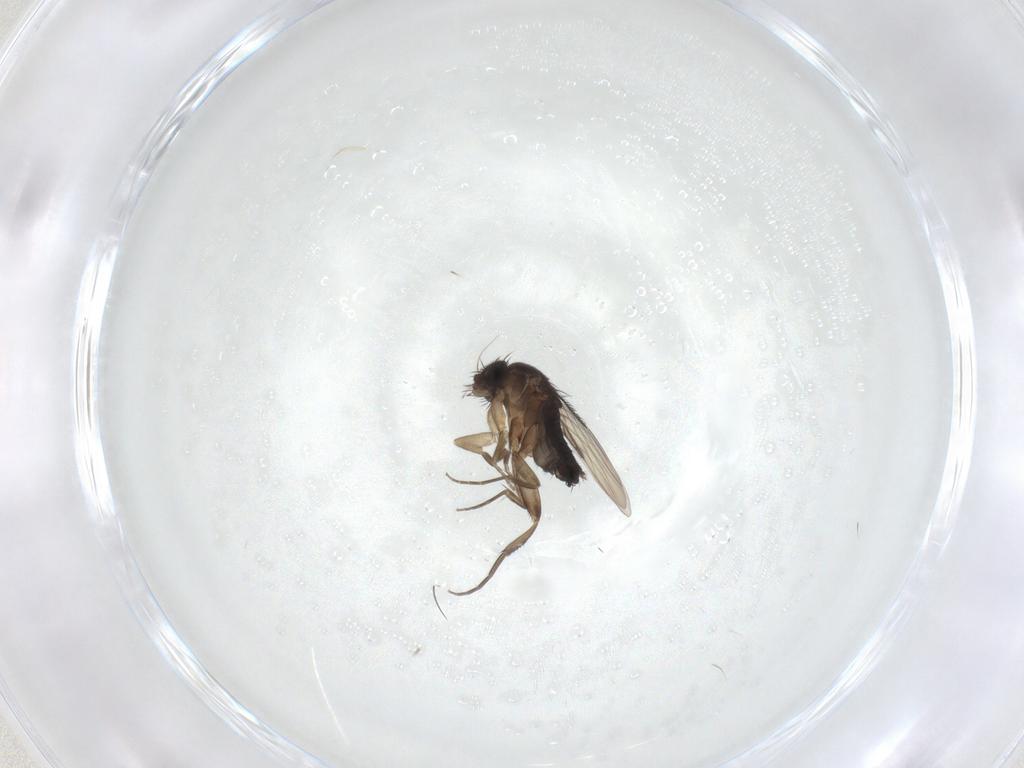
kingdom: Animalia
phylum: Arthropoda
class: Insecta
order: Diptera
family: Phoridae
